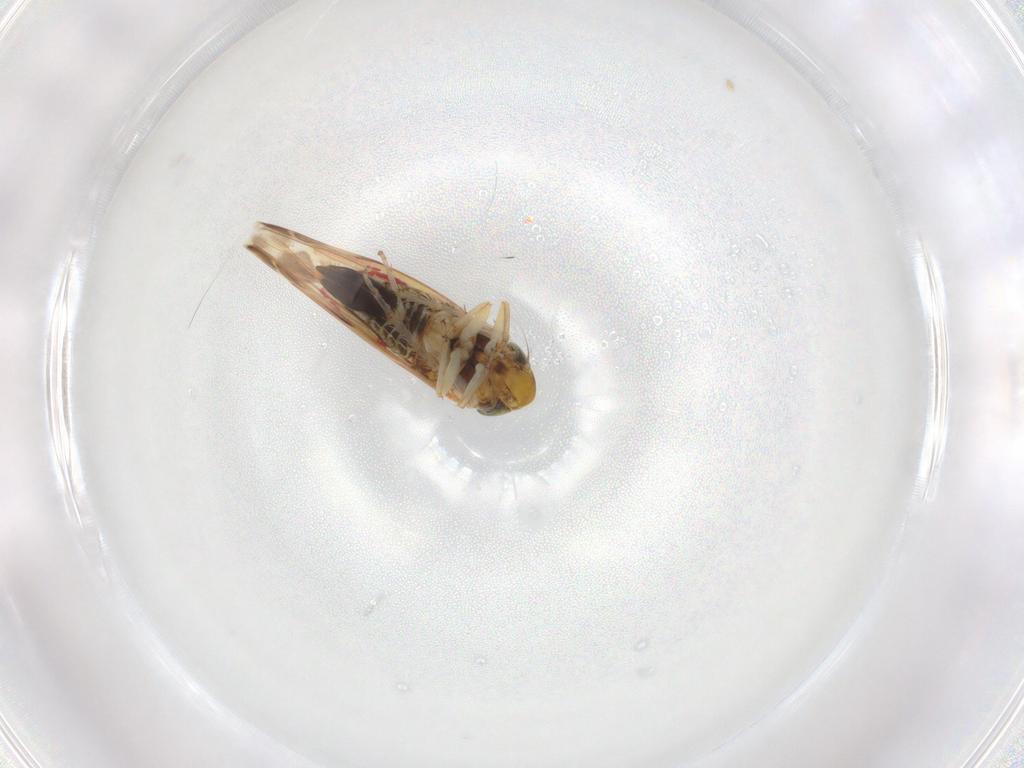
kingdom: Animalia
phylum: Arthropoda
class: Insecta
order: Hemiptera
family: Cicadellidae
